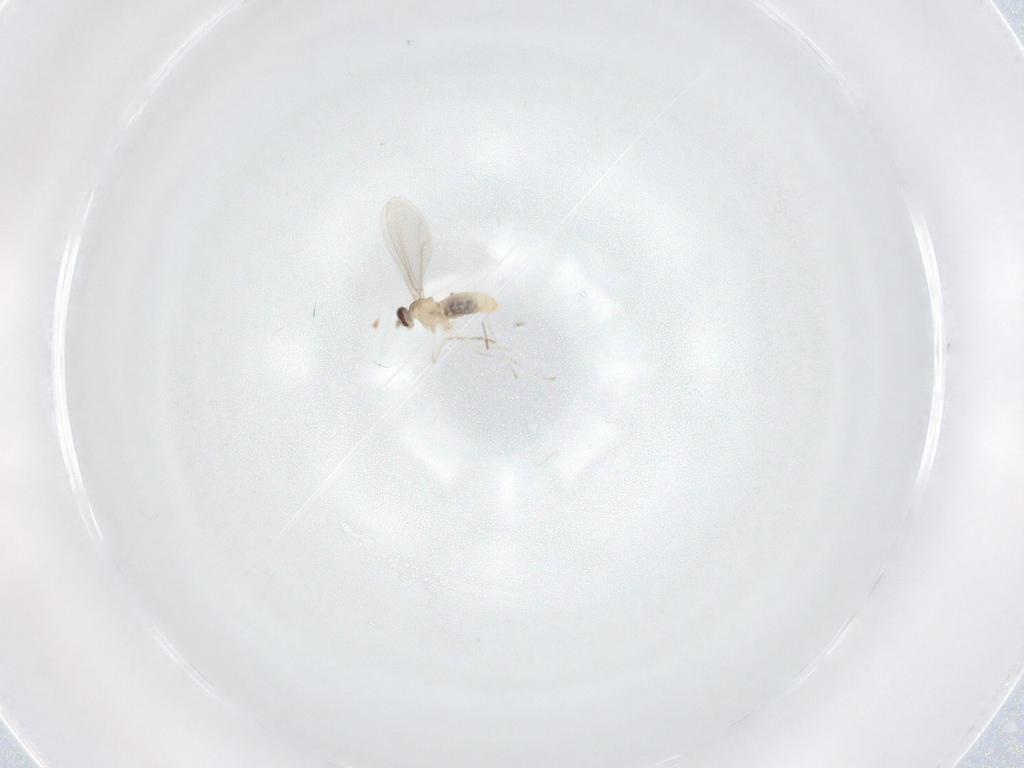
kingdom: Animalia
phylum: Arthropoda
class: Insecta
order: Diptera
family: Cecidomyiidae
